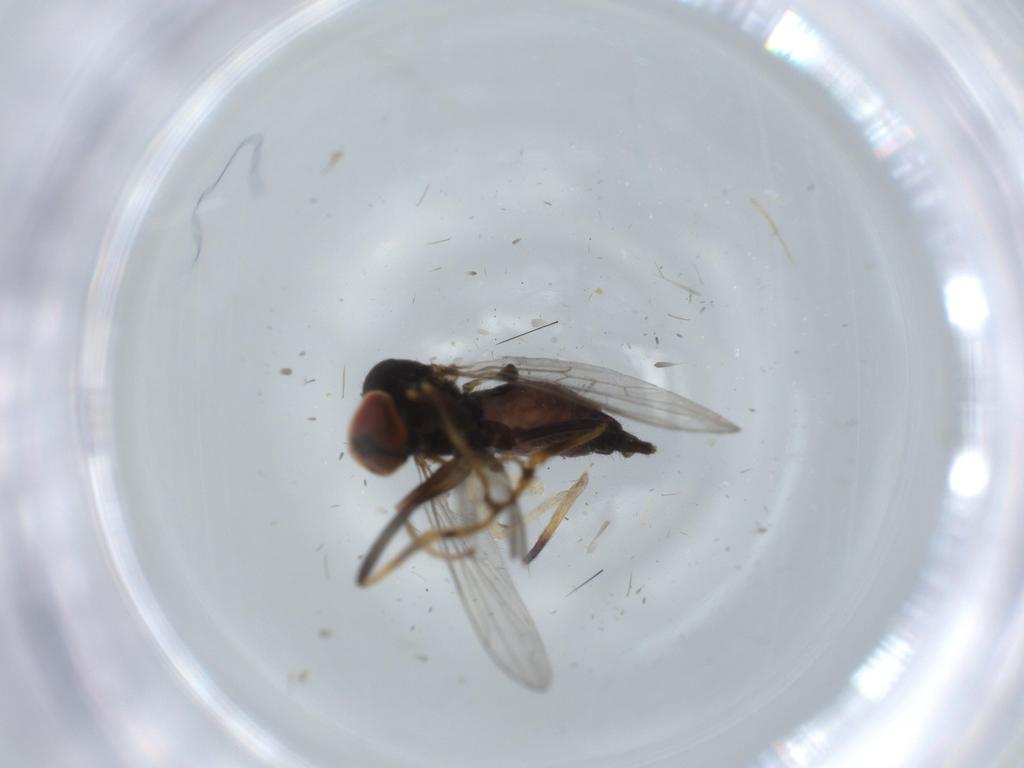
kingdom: Animalia
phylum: Arthropoda
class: Insecta
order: Diptera
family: Hybotidae
